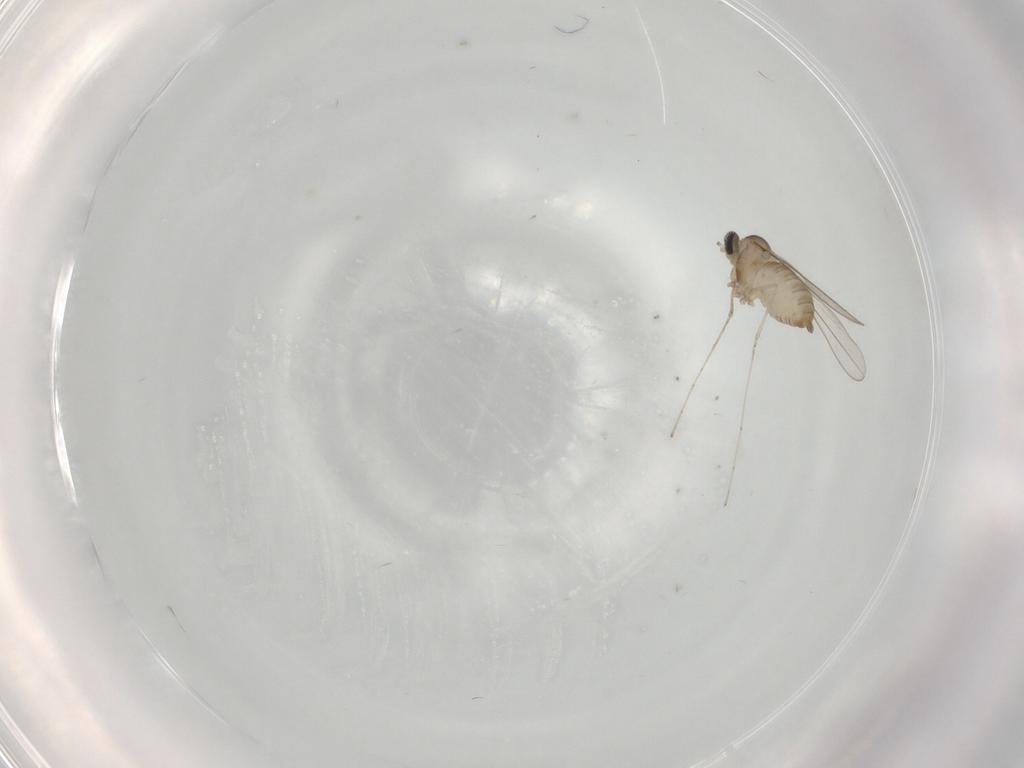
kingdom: Animalia
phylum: Arthropoda
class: Insecta
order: Diptera
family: Cecidomyiidae
